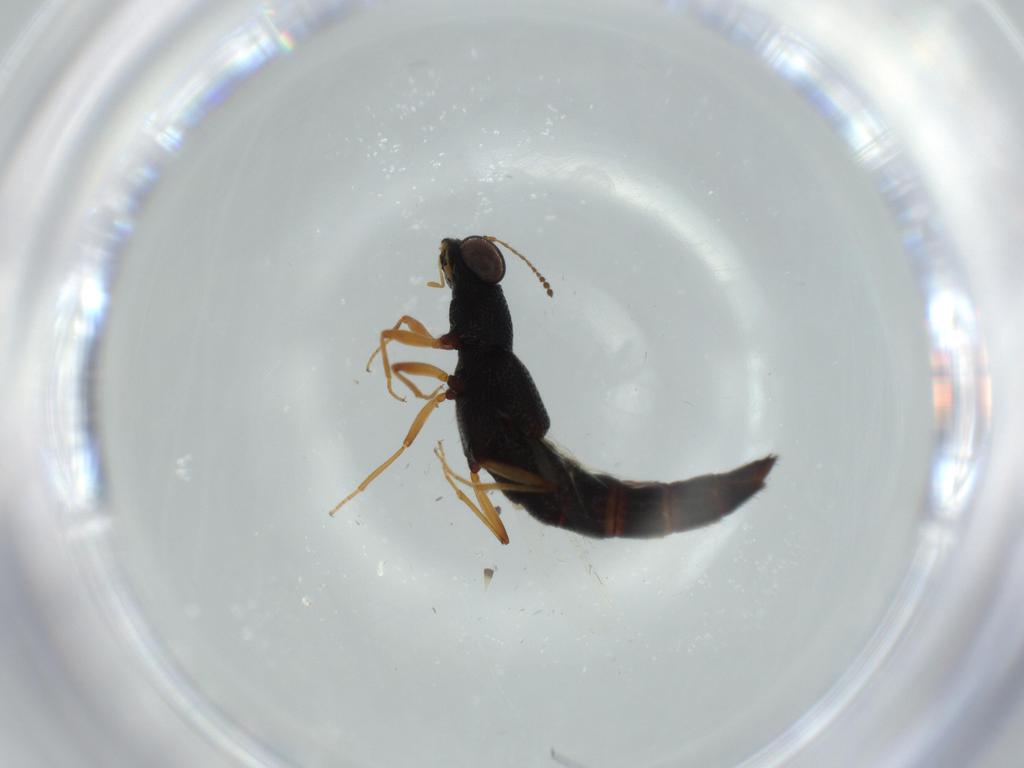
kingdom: Animalia
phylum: Arthropoda
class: Insecta
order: Coleoptera
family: Staphylinidae
